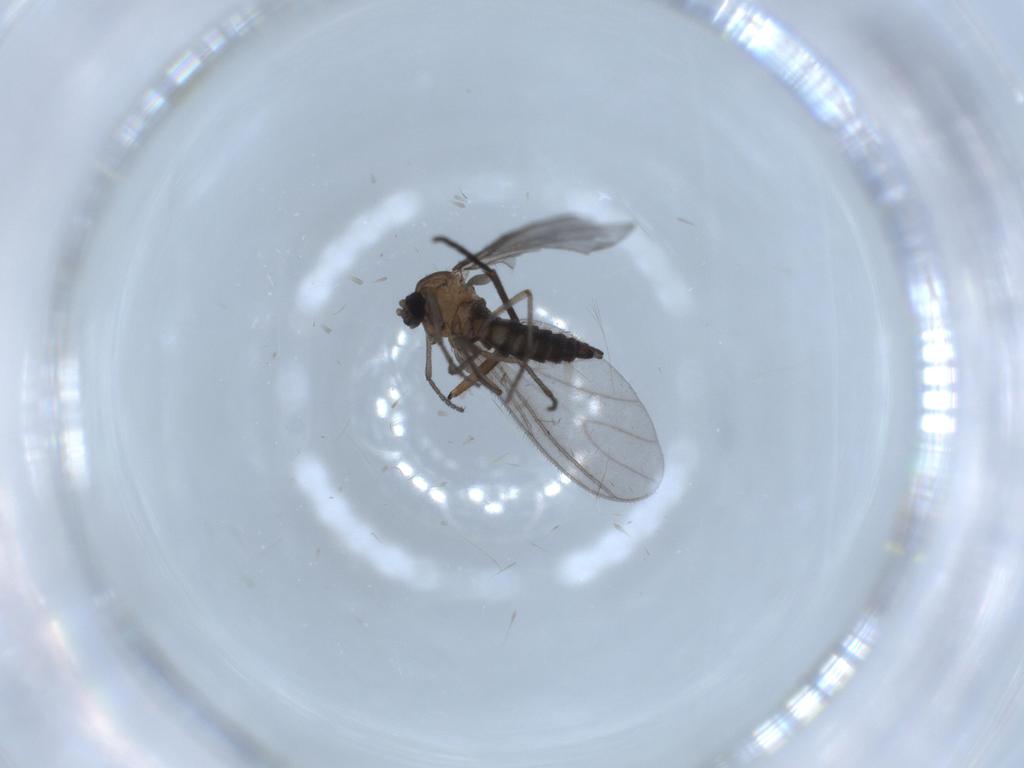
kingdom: Animalia
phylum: Arthropoda
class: Insecta
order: Diptera
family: Sciaridae
